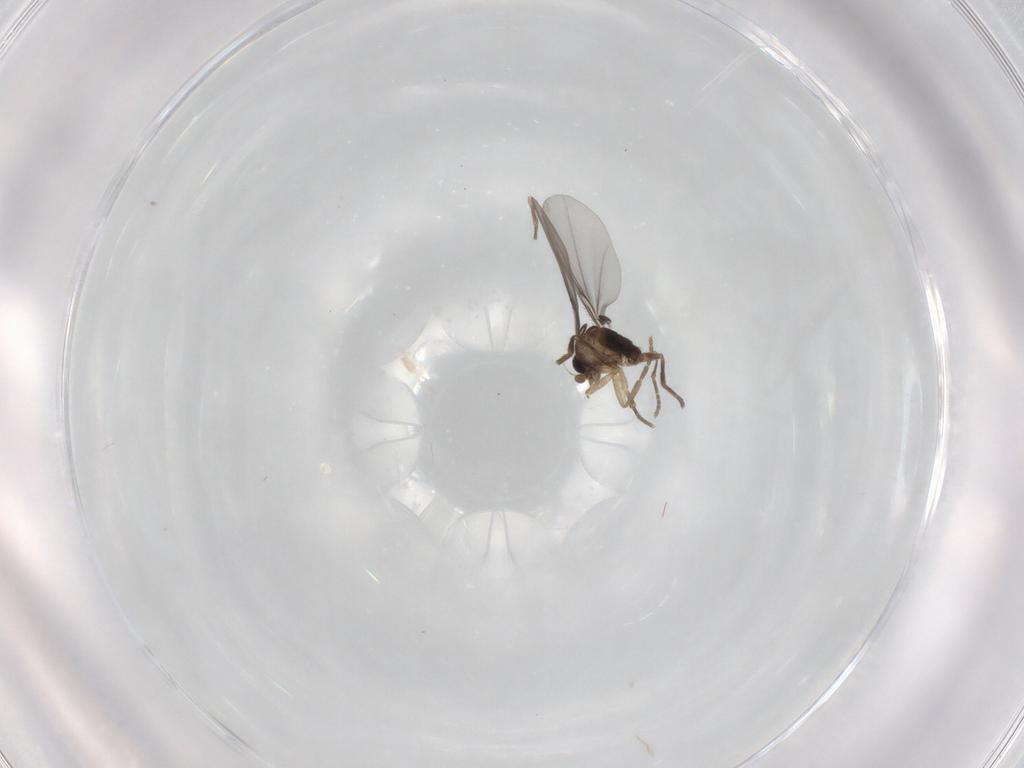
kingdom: Animalia
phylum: Arthropoda
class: Insecta
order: Diptera
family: Phoridae
